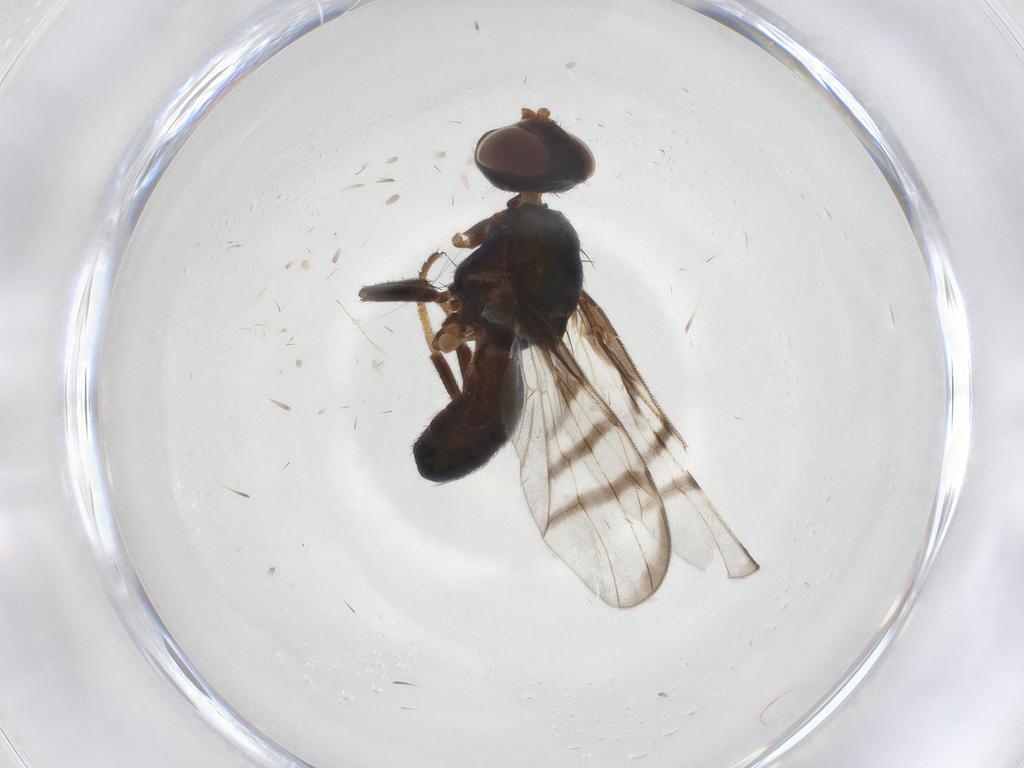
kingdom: Animalia
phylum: Arthropoda
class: Insecta
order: Diptera
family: Platystomatidae
